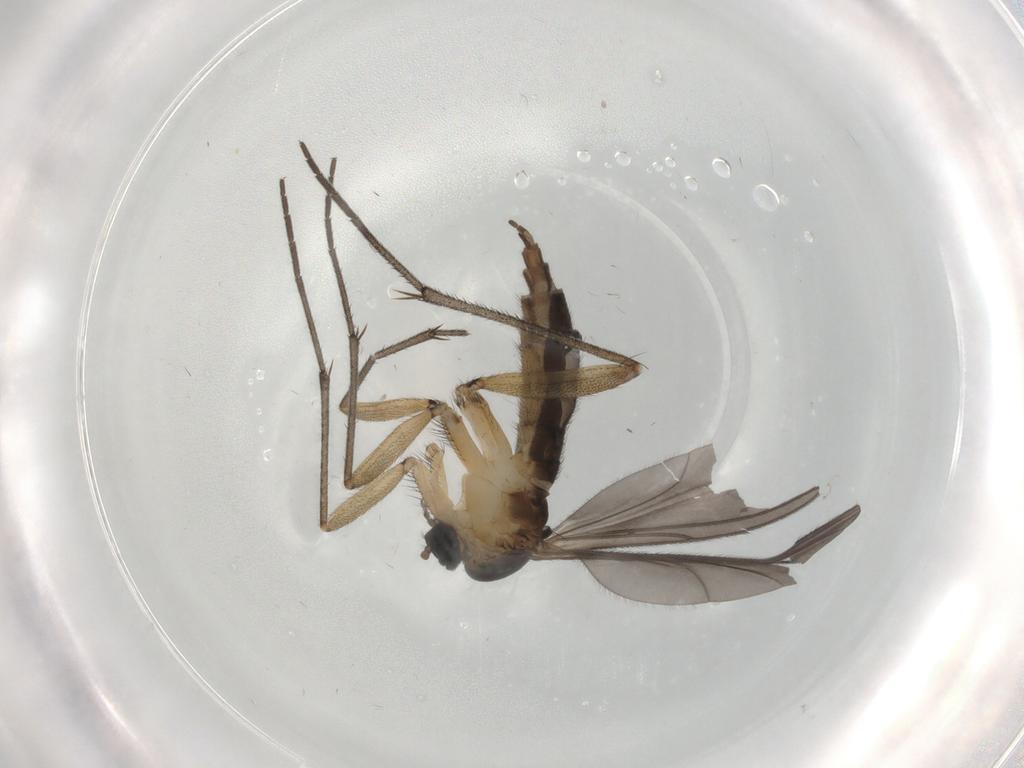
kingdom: Animalia
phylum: Arthropoda
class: Insecta
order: Diptera
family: Sciaridae
